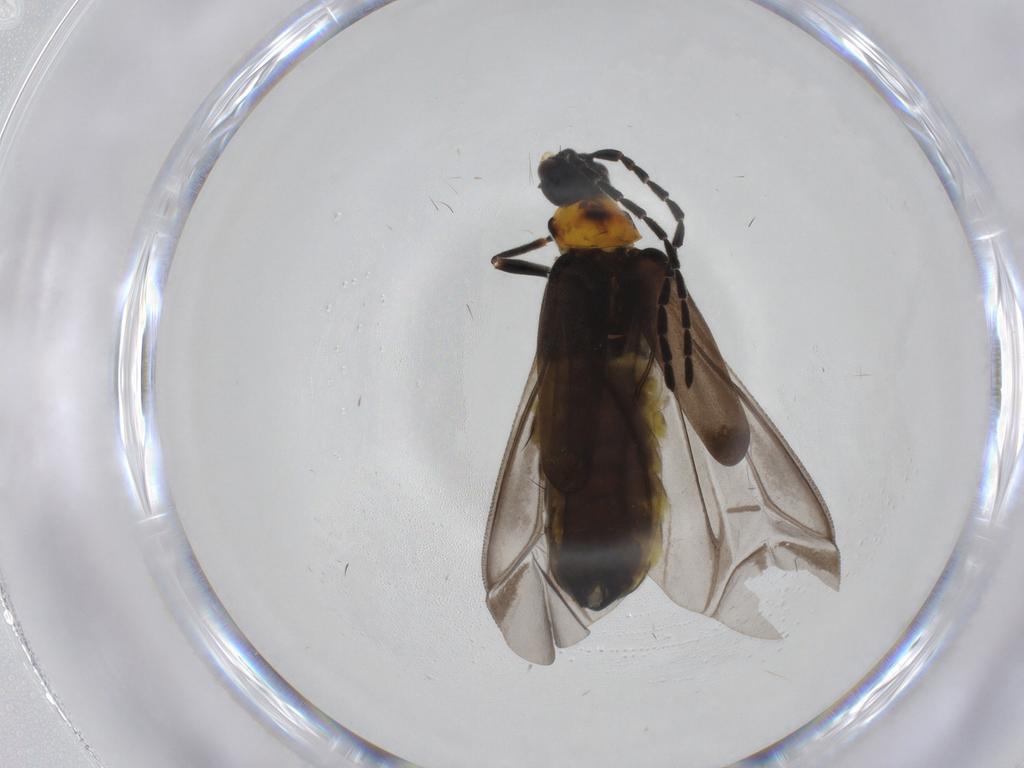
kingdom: Animalia
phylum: Arthropoda
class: Insecta
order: Coleoptera
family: Cantharidae
